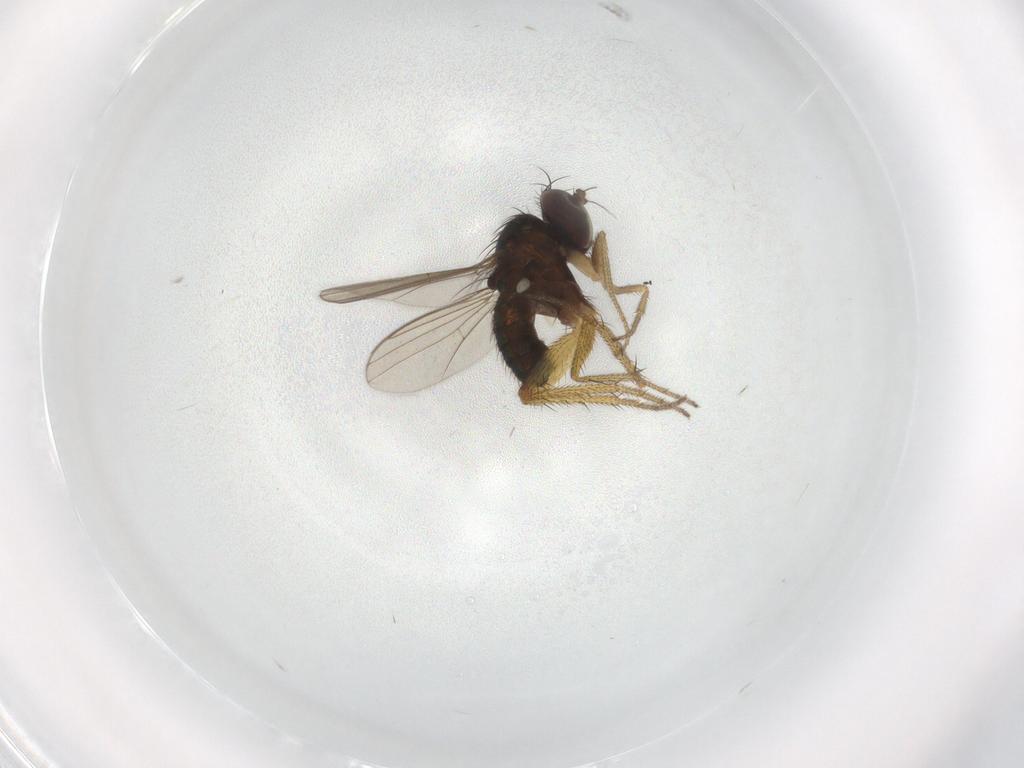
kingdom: Animalia
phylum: Arthropoda
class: Insecta
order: Diptera
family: Dolichopodidae
